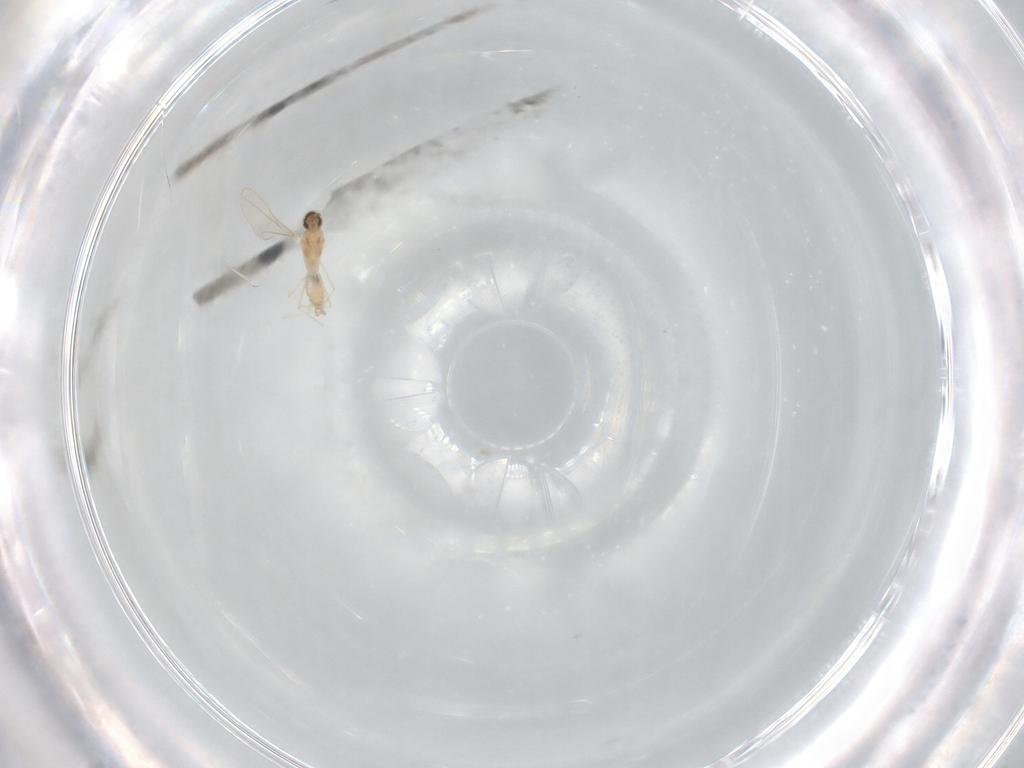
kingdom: Animalia
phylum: Arthropoda
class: Insecta
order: Diptera
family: Cecidomyiidae
